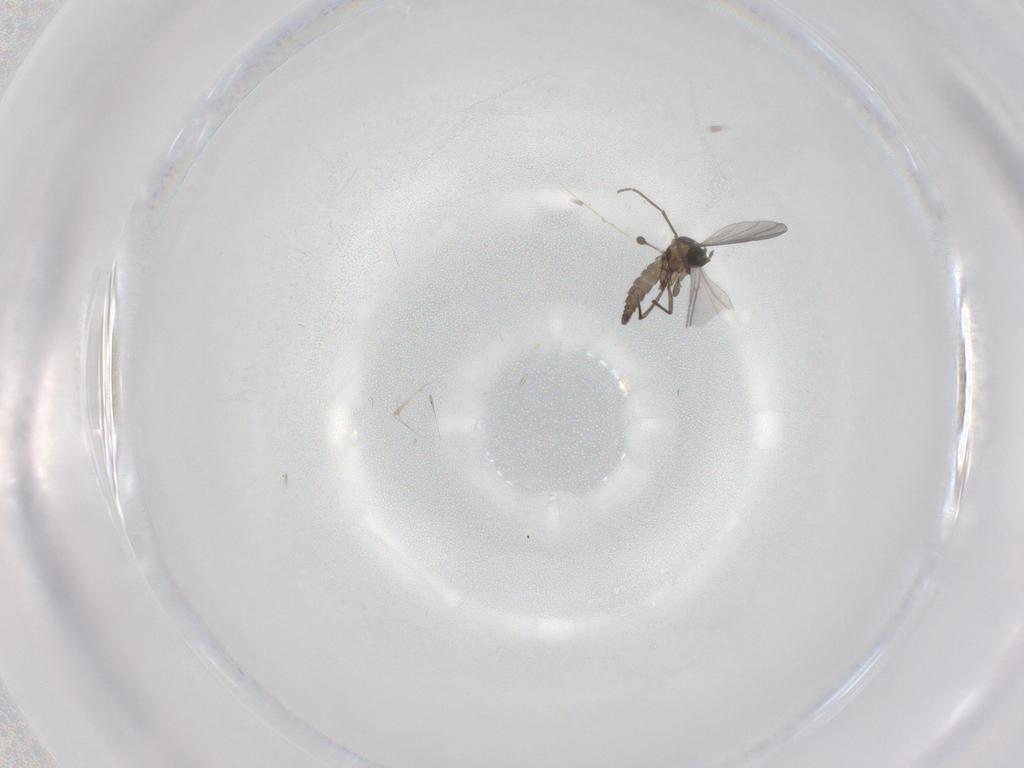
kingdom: Animalia
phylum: Arthropoda
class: Insecta
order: Diptera
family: Sciaridae
